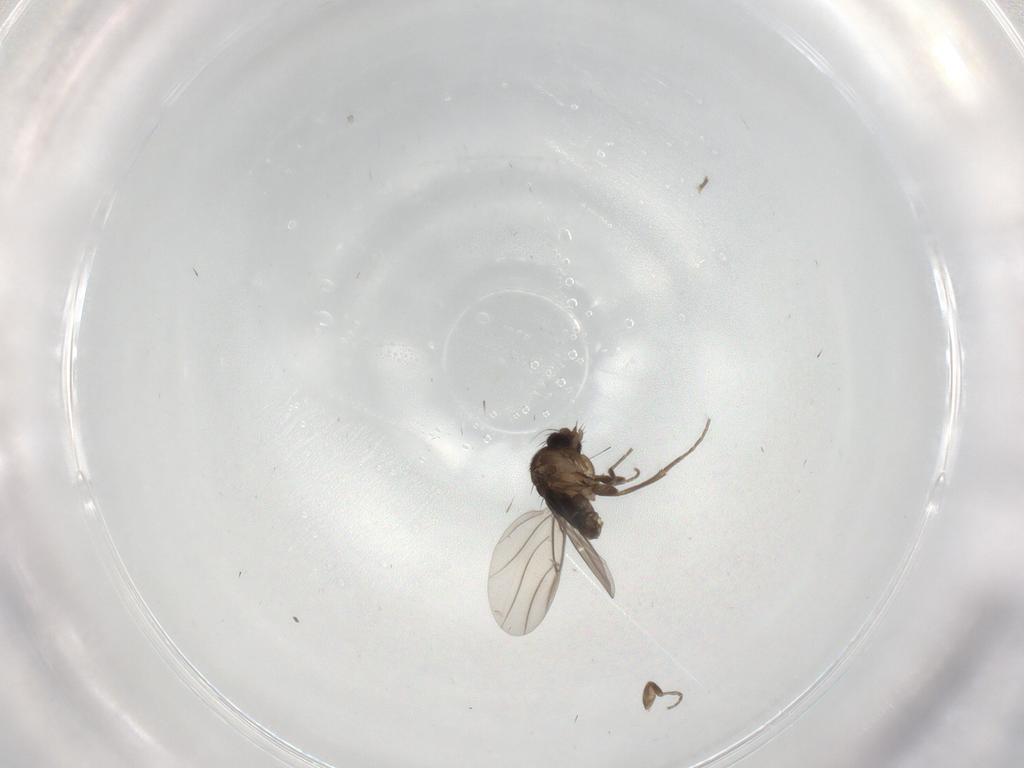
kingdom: Animalia
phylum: Arthropoda
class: Insecta
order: Diptera
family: Phoridae
